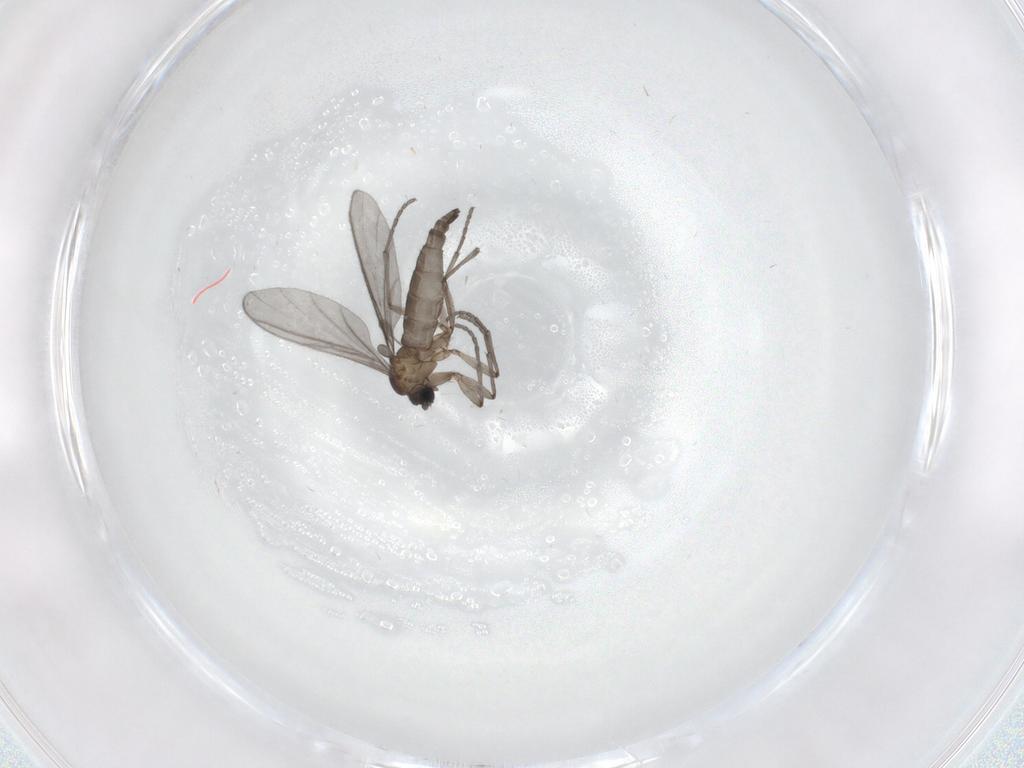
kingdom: Animalia
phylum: Arthropoda
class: Insecta
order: Diptera
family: Sciaridae
